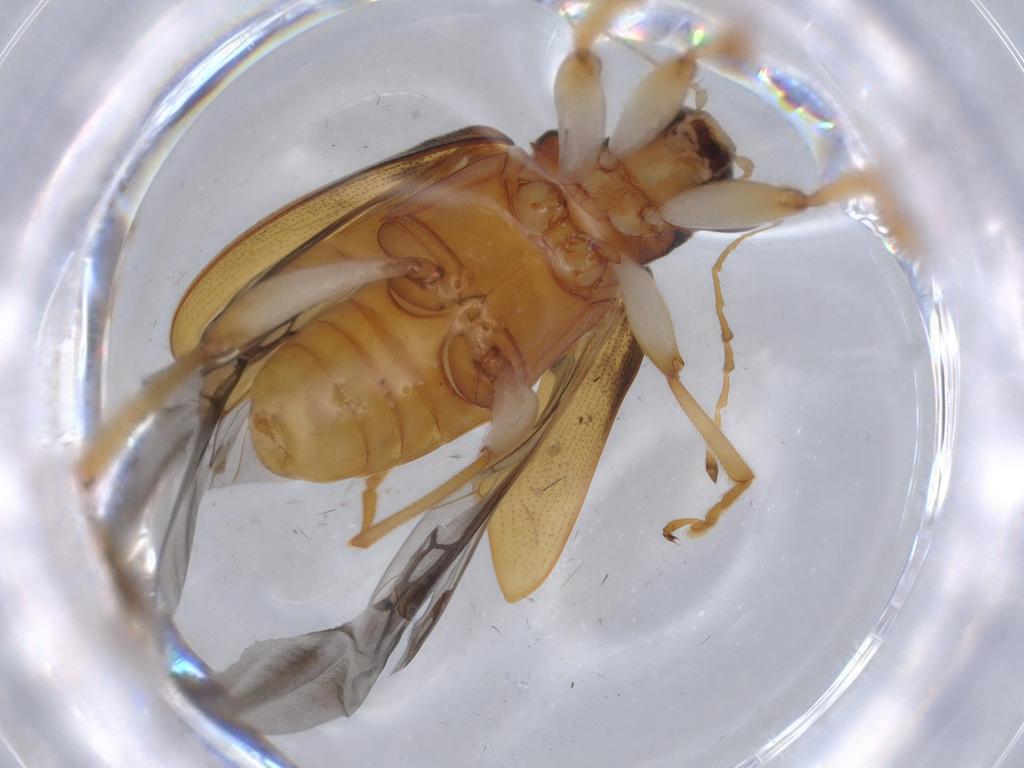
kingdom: Animalia
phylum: Arthropoda
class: Insecta
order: Coleoptera
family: Chrysomelidae
